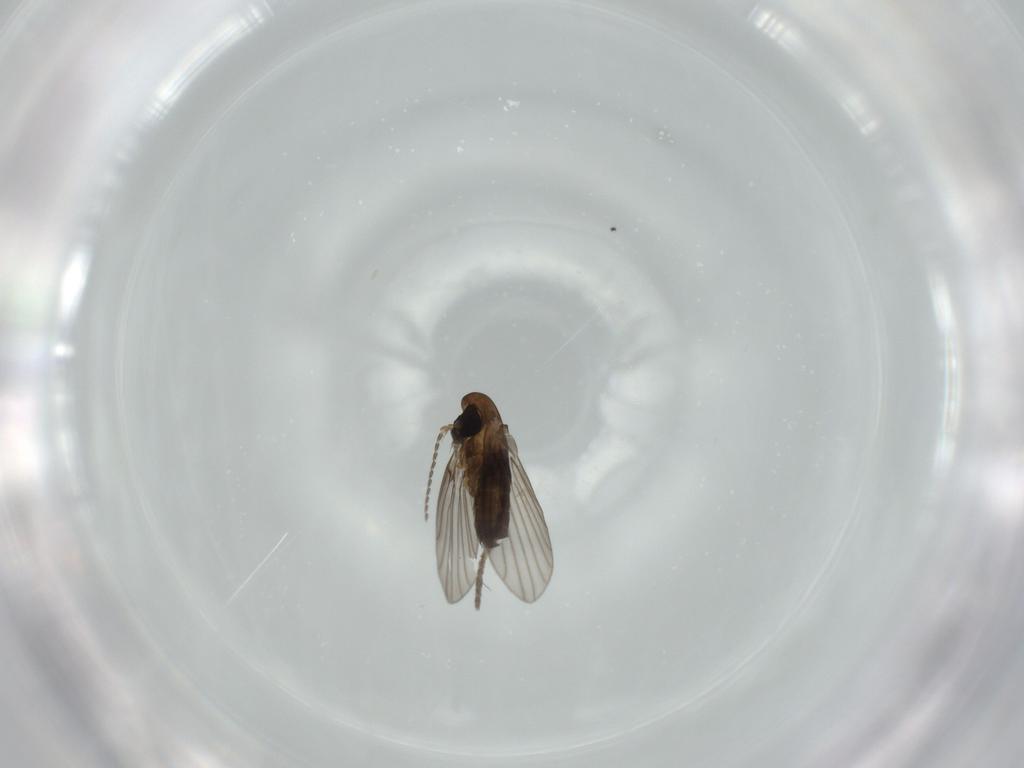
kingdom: Animalia
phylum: Arthropoda
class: Insecta
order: Diptera
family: Psychodidae
